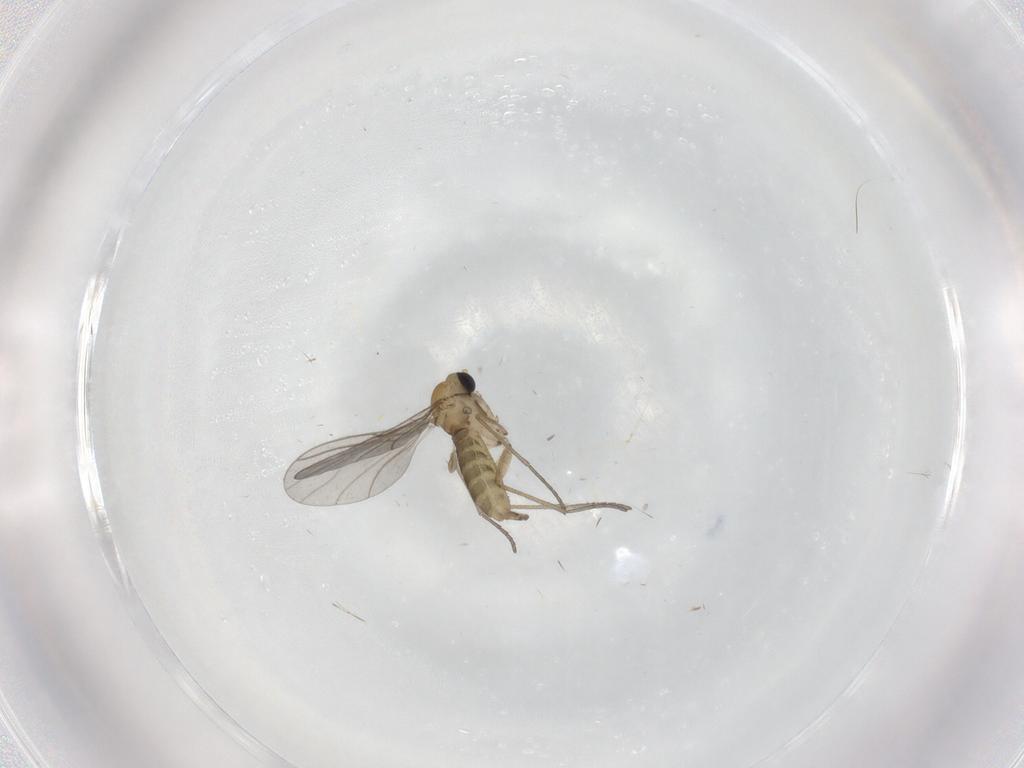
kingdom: Animalia
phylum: Arthropoda
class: Insecta
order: Diptera
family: Sciaridae
